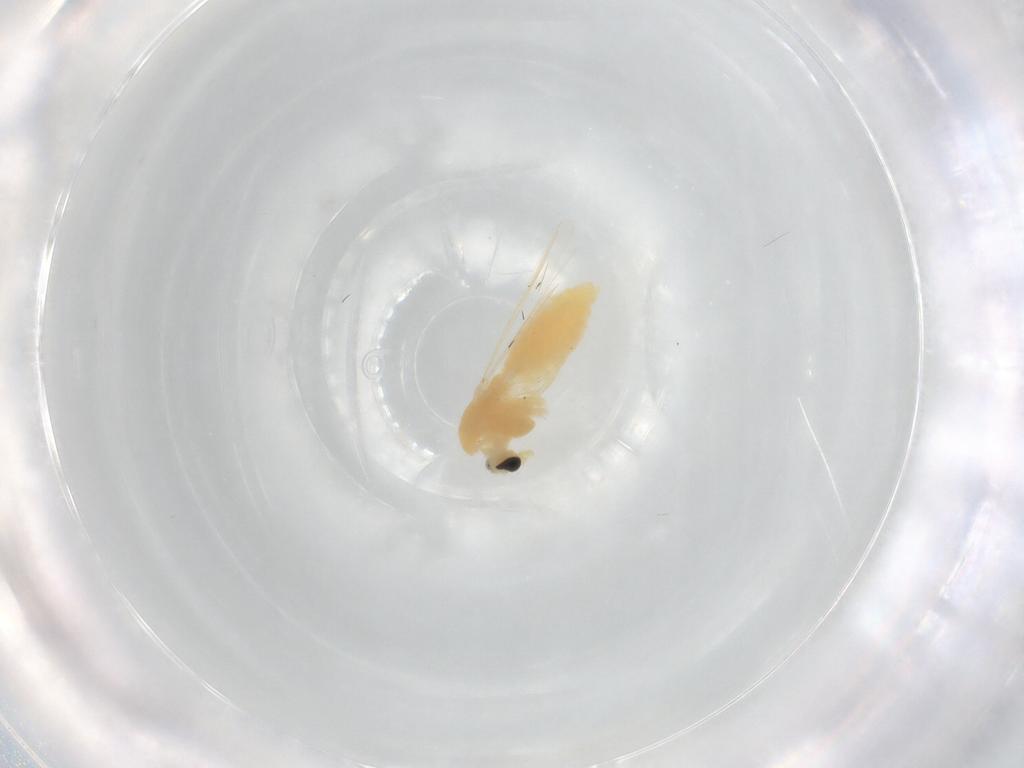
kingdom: Animalia
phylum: Arthropoda
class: Insecta
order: Diptera
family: Chironomidae
